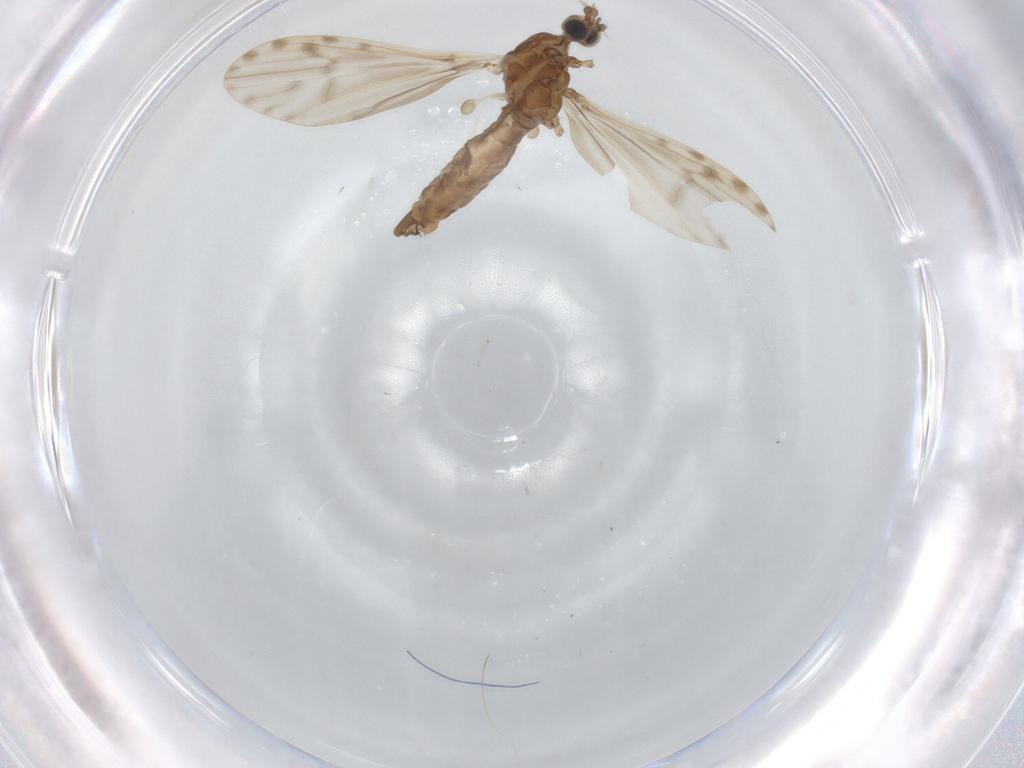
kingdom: Animalia
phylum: Arthropoda
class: Insecta
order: Diptera
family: Limoniidae
